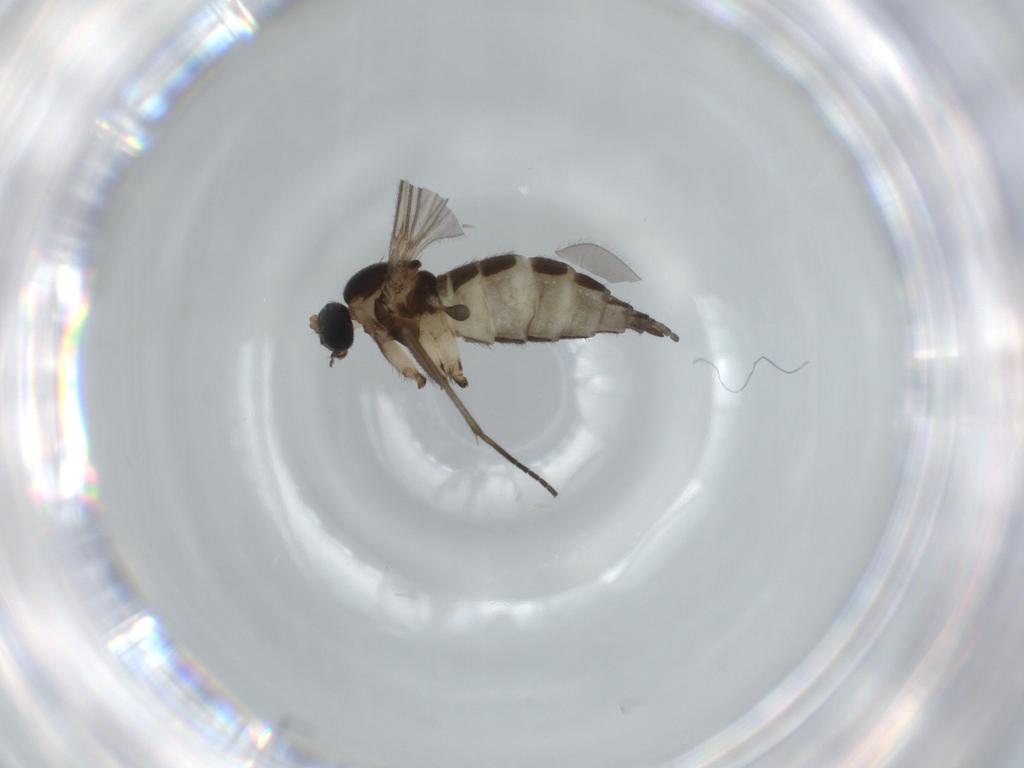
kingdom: Animalia
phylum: Arthropoda
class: Insecta
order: Diptera
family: Sciaridae
